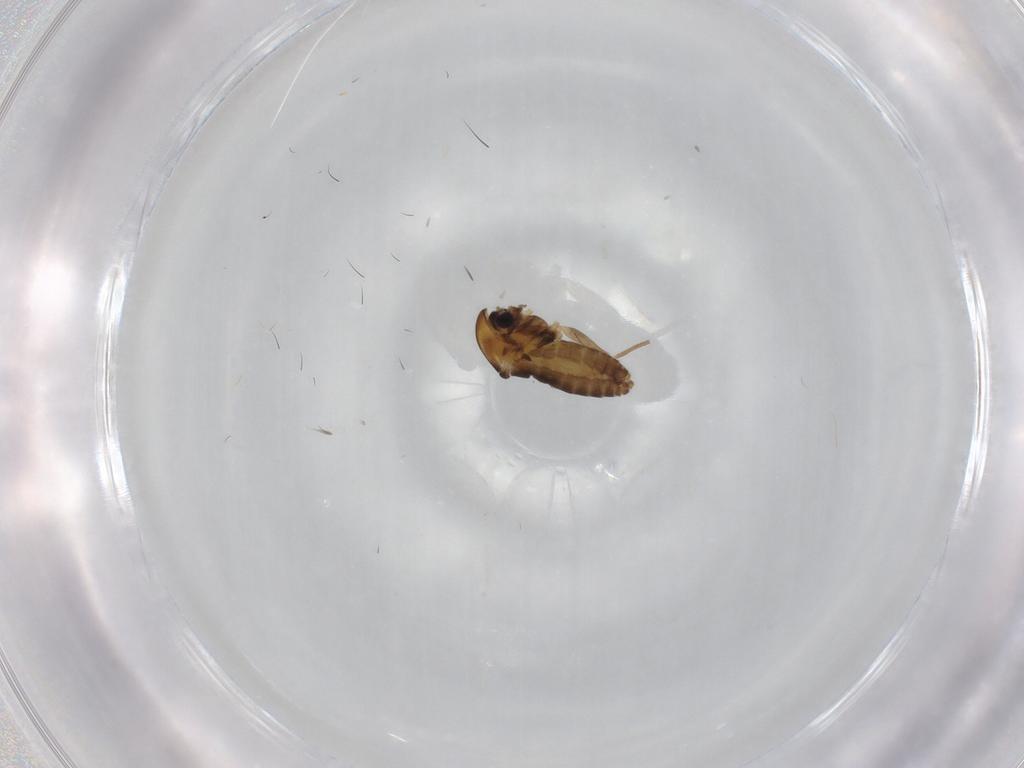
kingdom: Animalia
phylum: Arthropoda
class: Insecta
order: Diptera
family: Chironomidae
